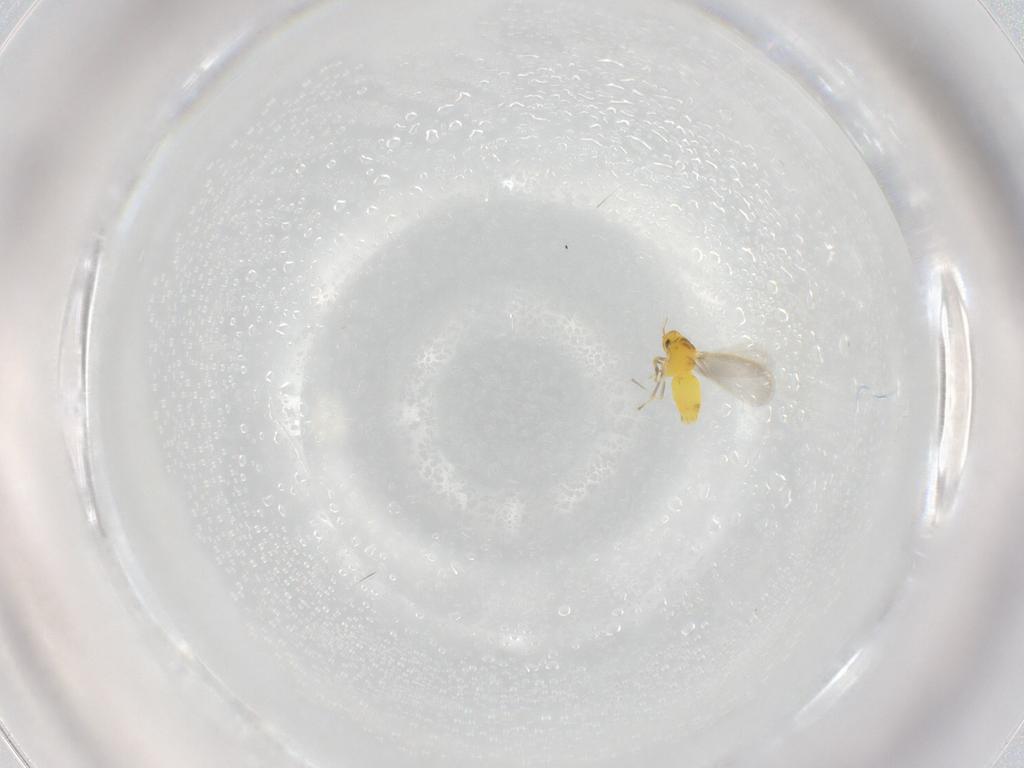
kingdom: Animalia
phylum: Arthropoda
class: Insecta
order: Hemiptera
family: Aleyrodidae
